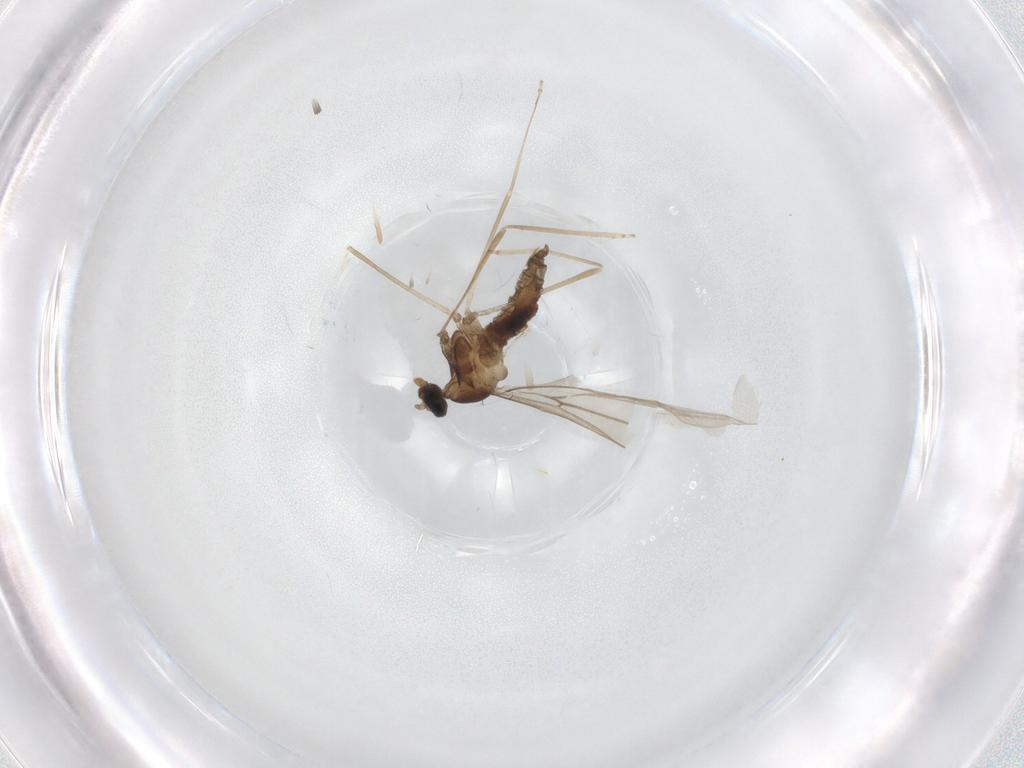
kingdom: Animalia
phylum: Arthropoda
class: Insecta
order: Diptera
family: Cecidomyiidae
